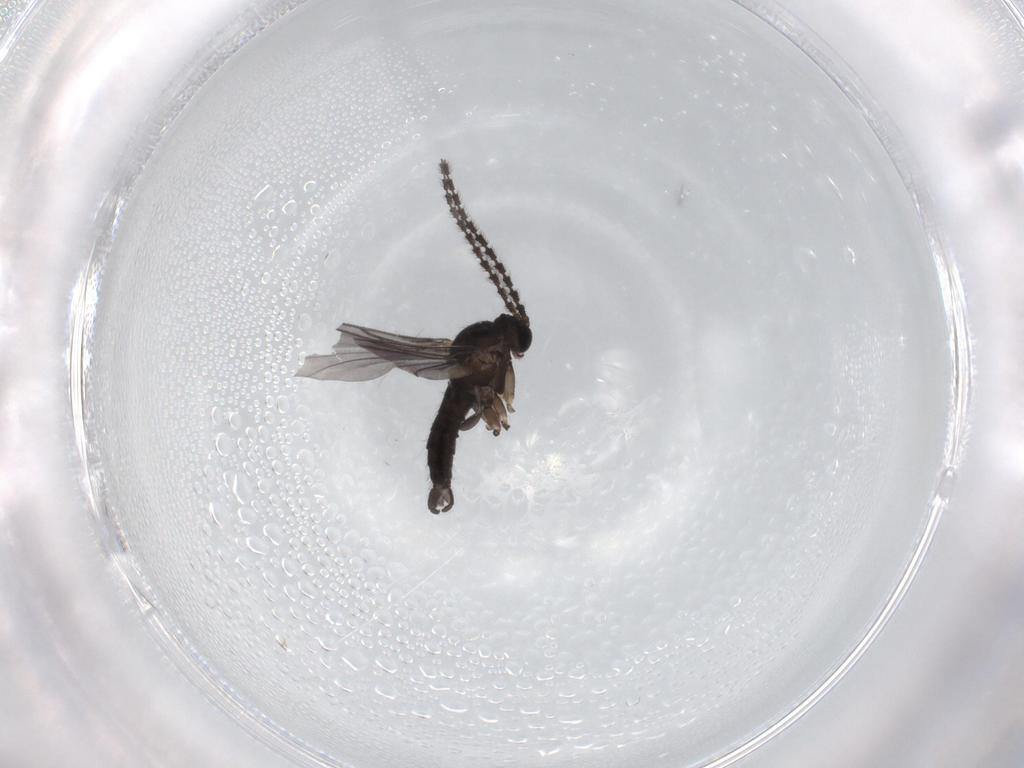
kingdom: Animalia
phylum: Arthropoda
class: Insecta
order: Diptera
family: Sciaridae
